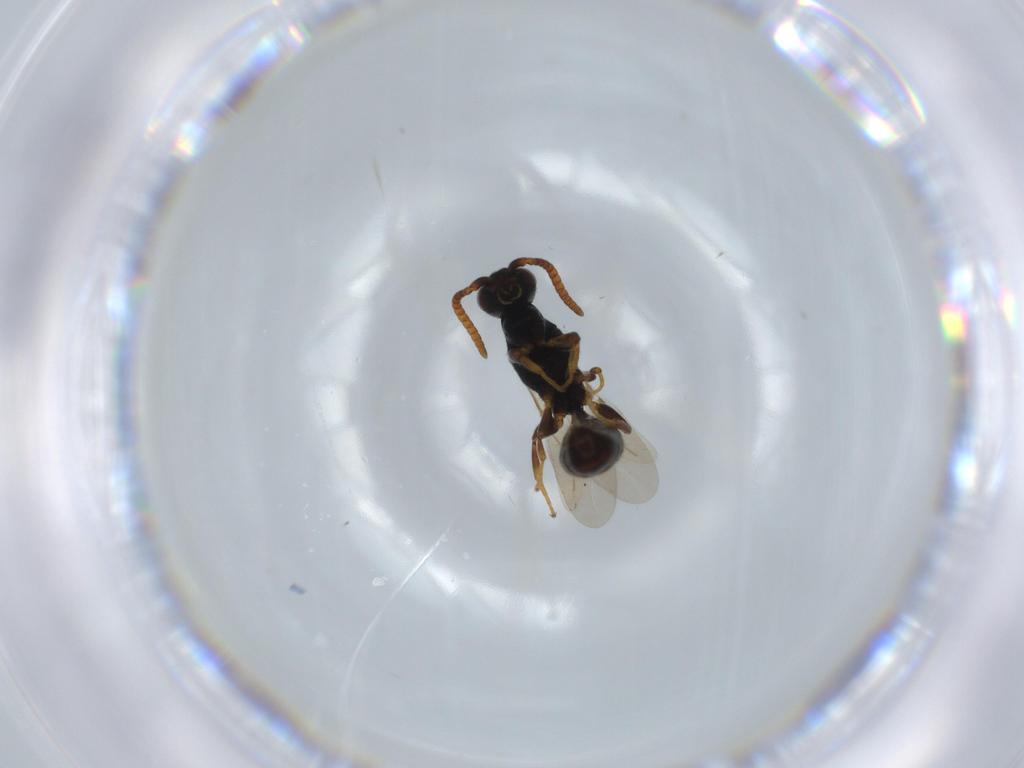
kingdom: Animalia
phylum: Arthropoda
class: Insecta
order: Hymenoptera
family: Bethylidae
